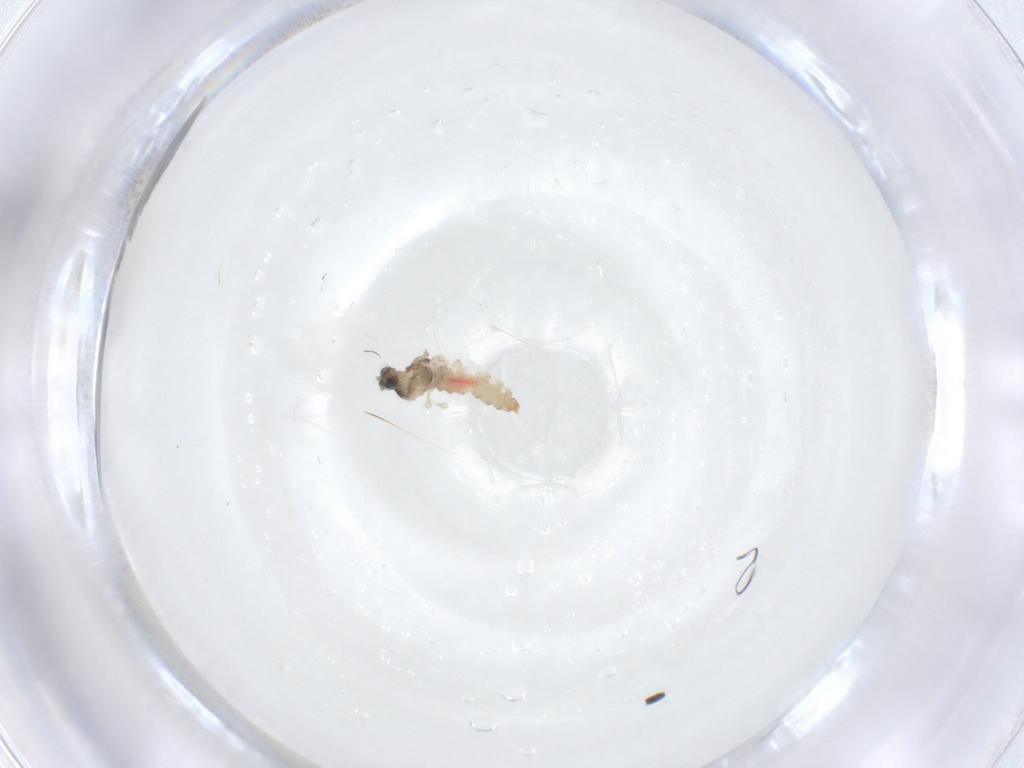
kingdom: Animalia
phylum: Arthropoda
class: Insecta
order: Diptera
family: Cecidomyiidae
